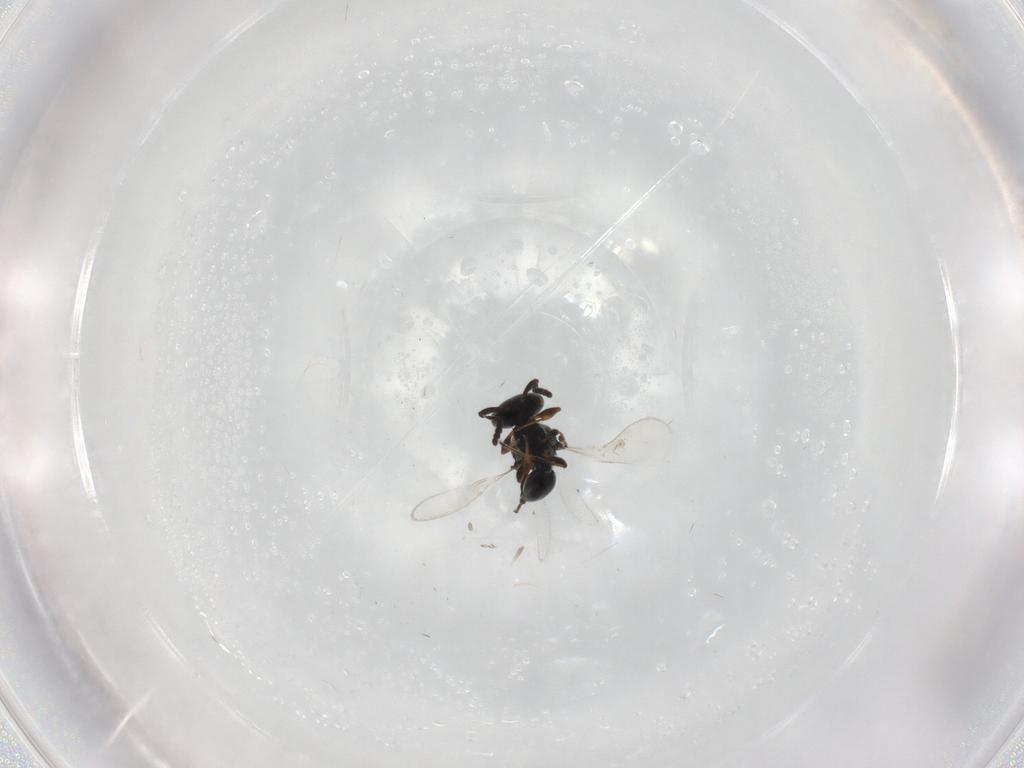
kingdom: Animalia
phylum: Arthropoda
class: Insecta
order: Hymenoptera
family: Platygastridae
